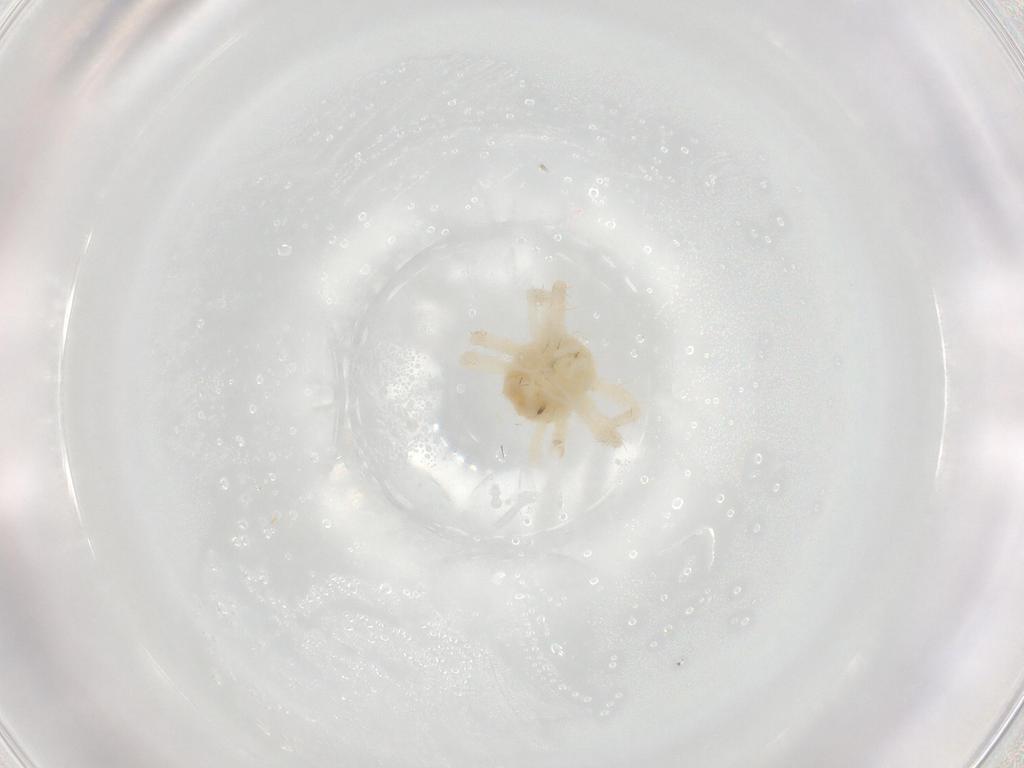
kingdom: Animalia
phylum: Arthropoda
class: Arachnida
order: Trombidiformes
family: Anystidae
